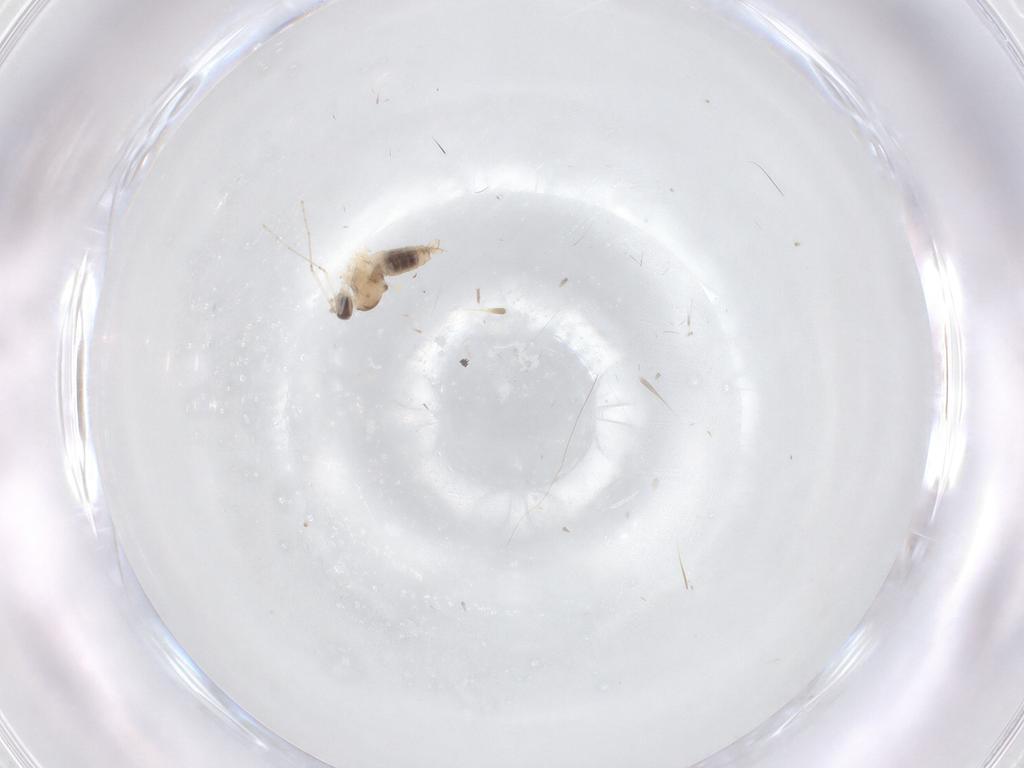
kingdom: Animalia
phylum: Arthropoda
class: Insecta
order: Diptera
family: Cecidomyiidae
